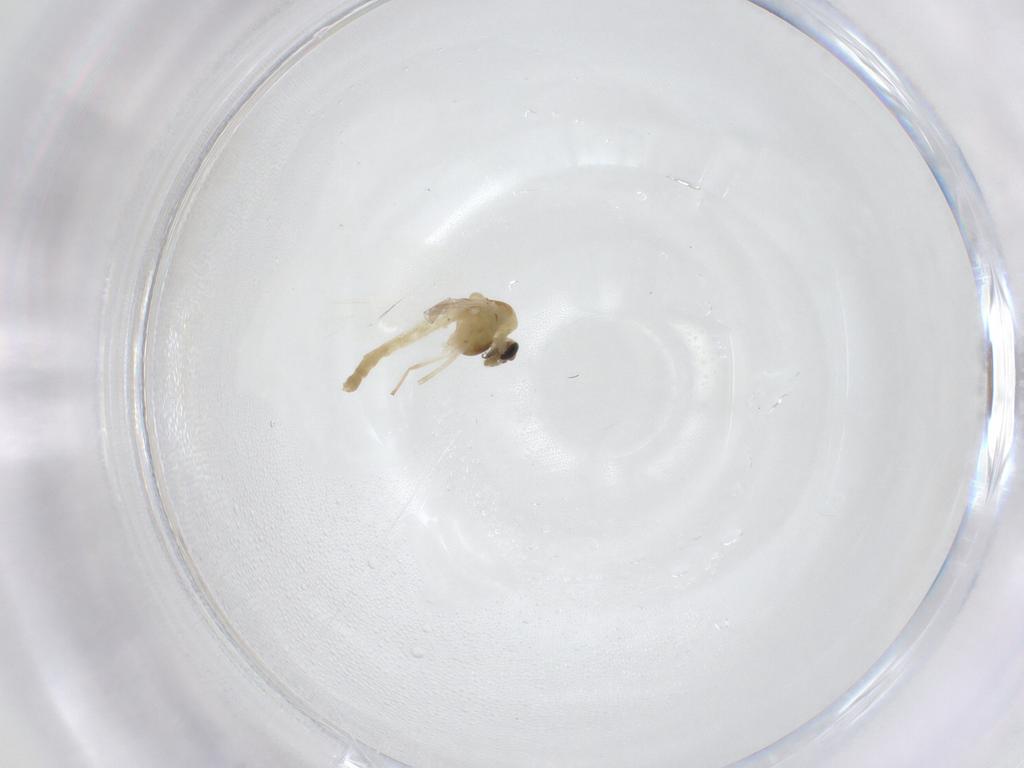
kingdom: Animalia
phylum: Arthropoda
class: Insecta
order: Diptera
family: Chironomidae
